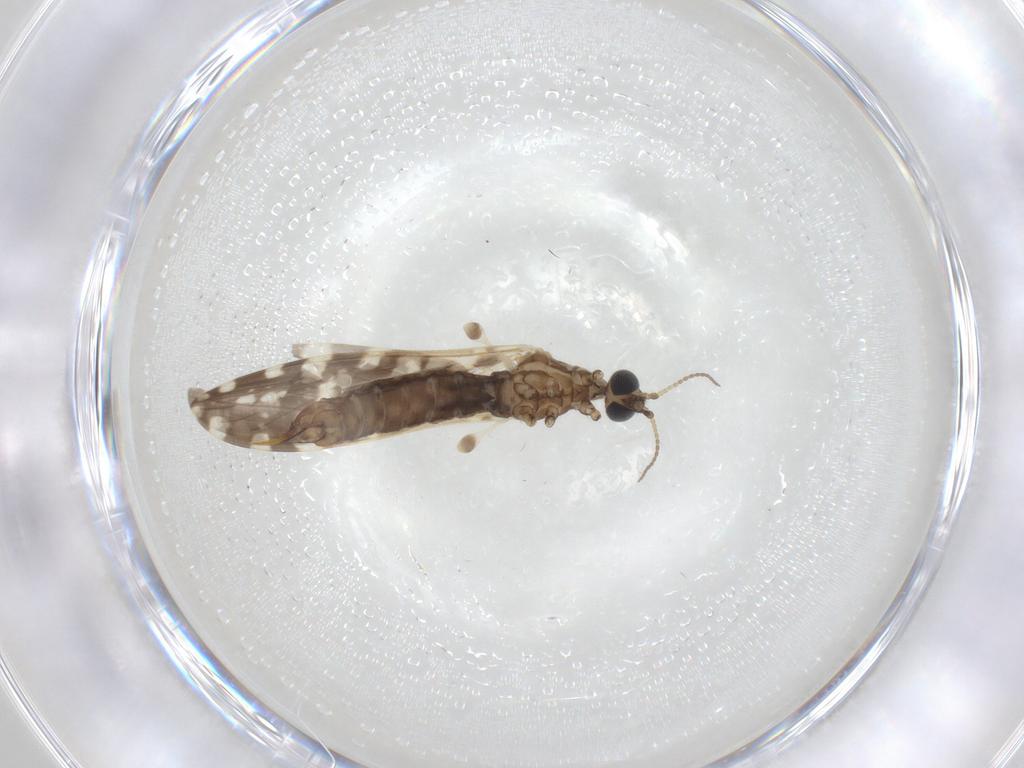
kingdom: Animalia
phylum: Arthropoda
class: Insecta
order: Diptera
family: Limoniidae
